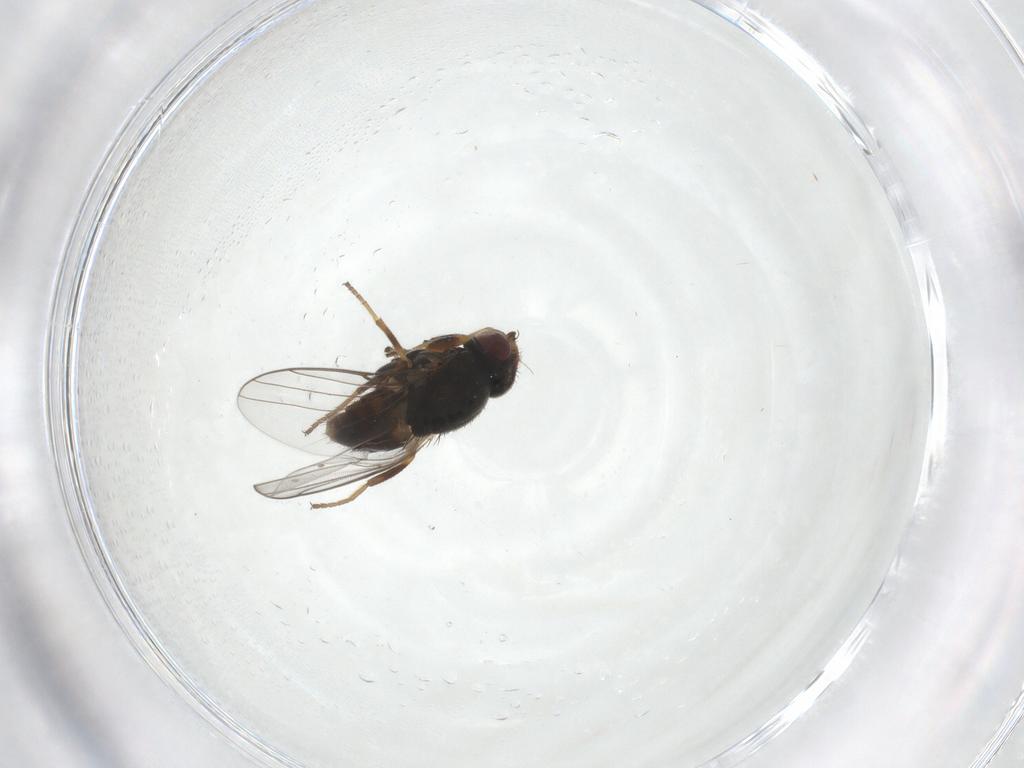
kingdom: Animalia
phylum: Arthropoda
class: Insecta
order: Diptera
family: Chloropidae
